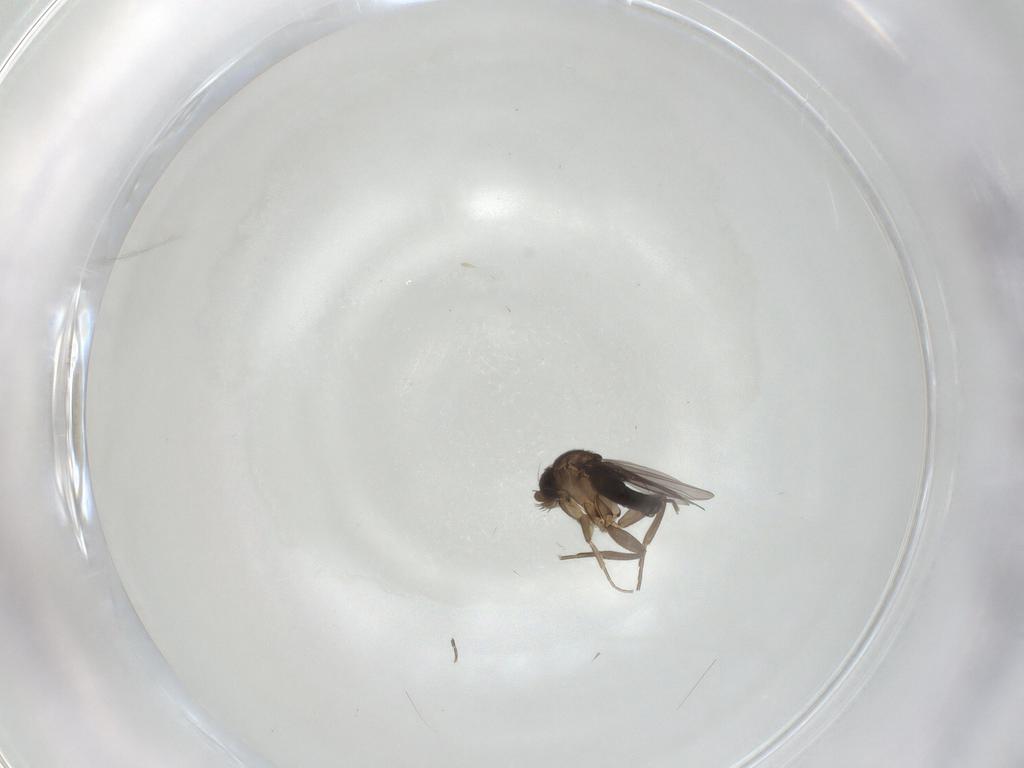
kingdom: Animalia
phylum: Arthropoda
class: Insecta
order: Diptera
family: Phoridae
